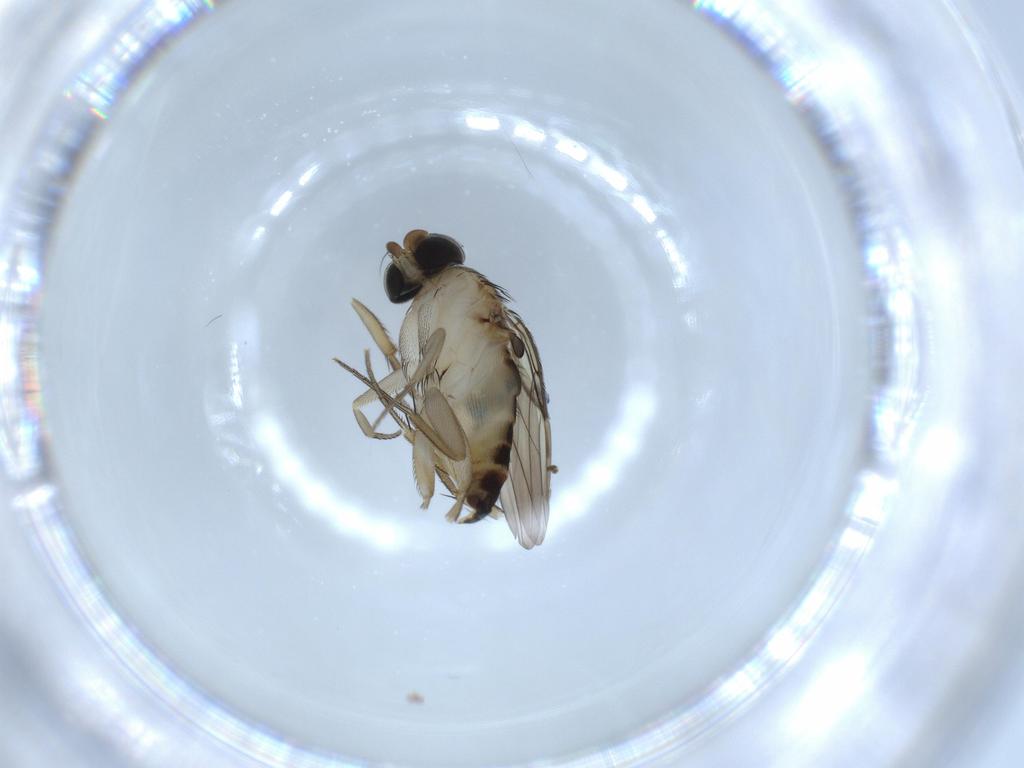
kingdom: Animalia
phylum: Arthropoda
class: Insecta
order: Diptera
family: Phoridae
